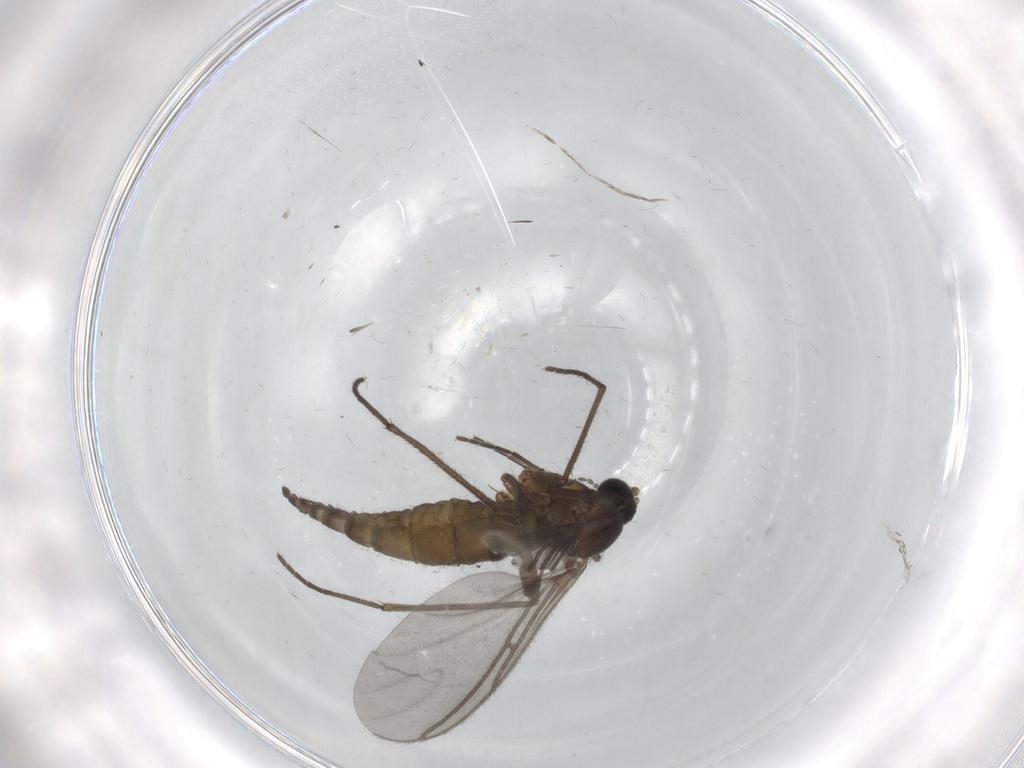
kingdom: Animalia
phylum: Arthropoda
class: Insecta
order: Diptera
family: Sciaridae
